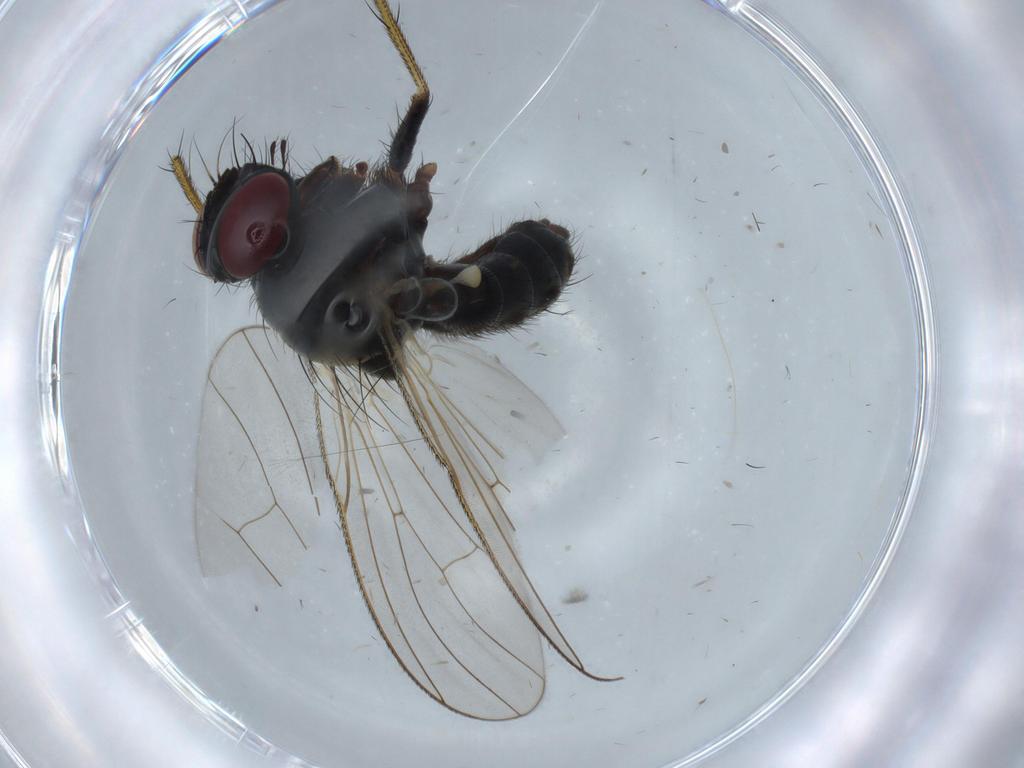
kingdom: Animalia
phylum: Arthropoda
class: Insecta
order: Diptera
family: Muscidae
